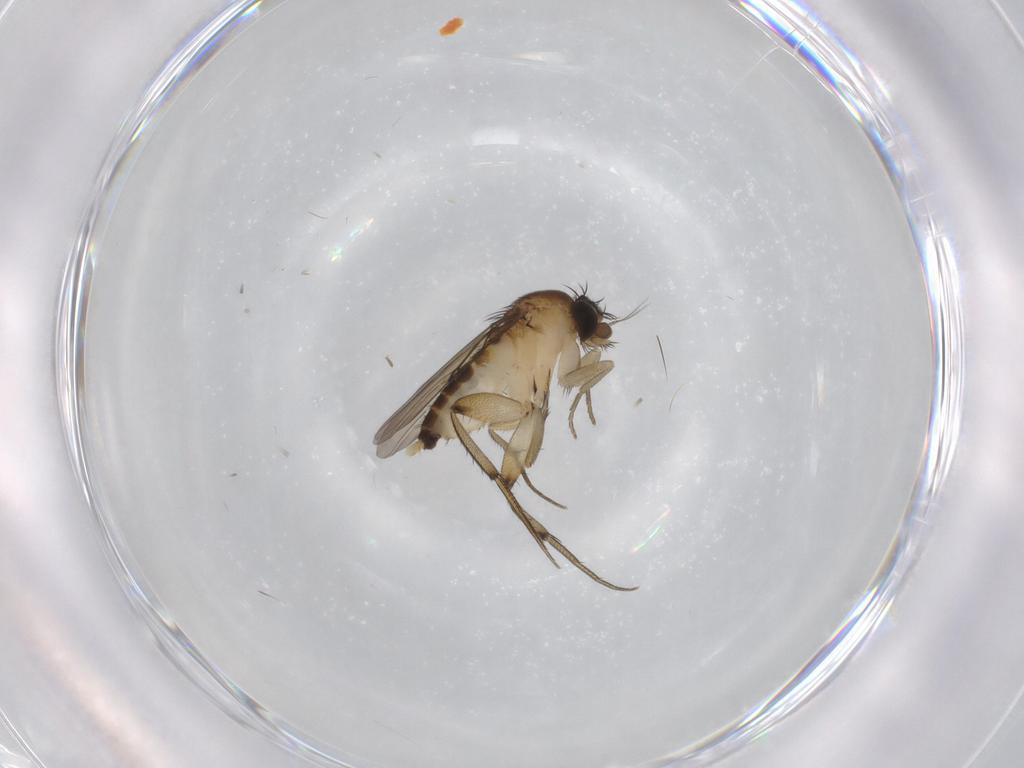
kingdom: Animalia
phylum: Arthropoda
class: Insecta
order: Diptera
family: Phoridae
